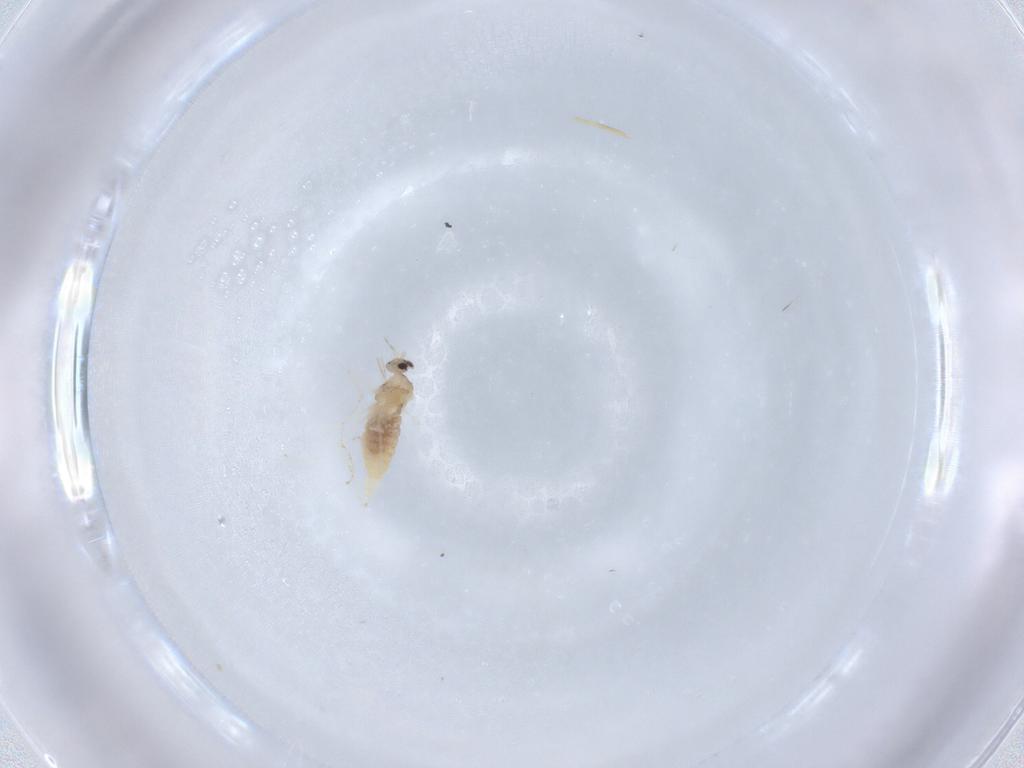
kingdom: Animalia
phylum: Arthropoda
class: Insecta
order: Diptera
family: Cecidomyiidae
